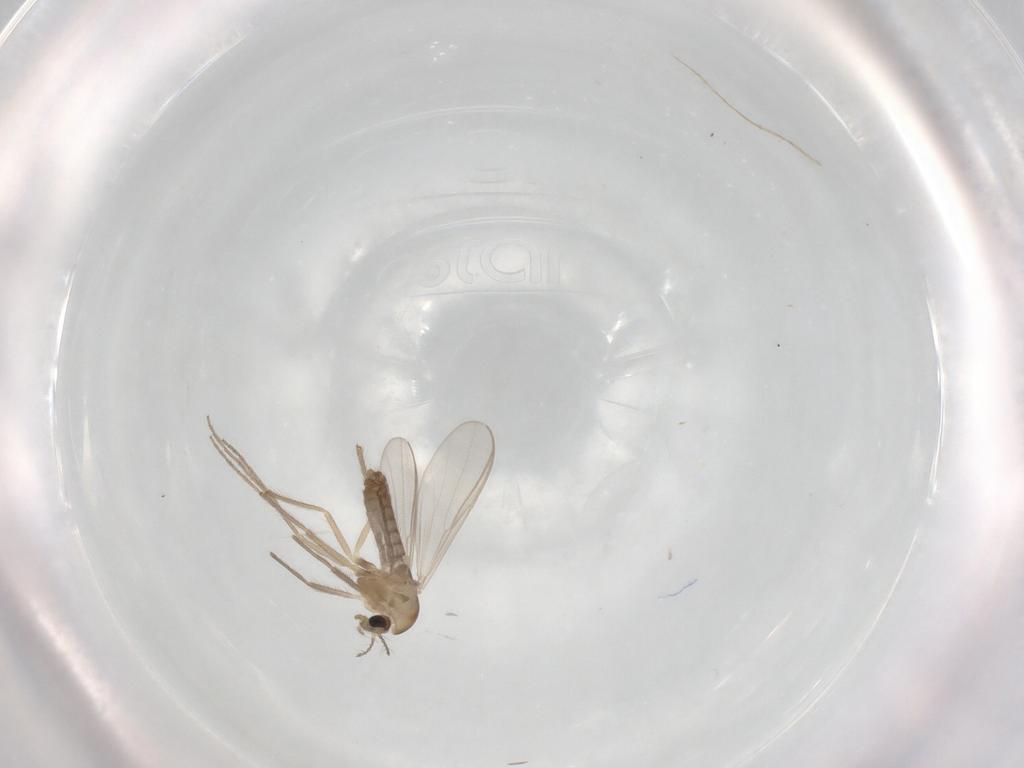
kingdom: Animalia
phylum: Arthropoda
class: Insecta
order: Diptera
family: Chironomidae
